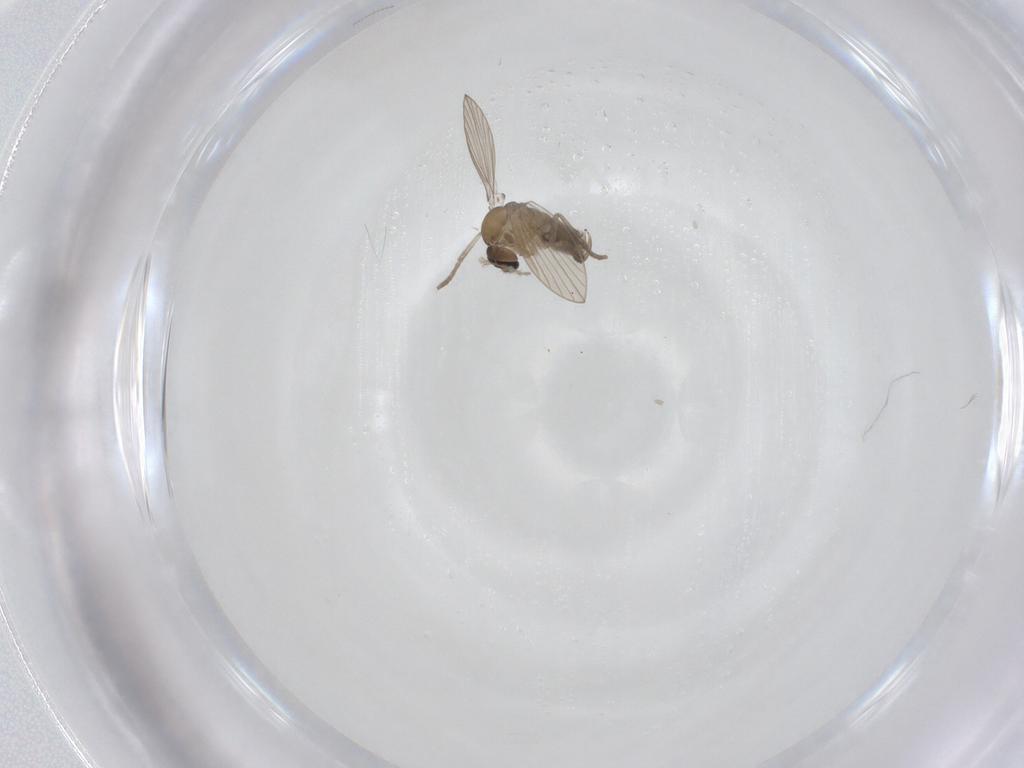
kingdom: Animalia
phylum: Arthropoda
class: Insecta
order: Diptera
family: Psychodidae
